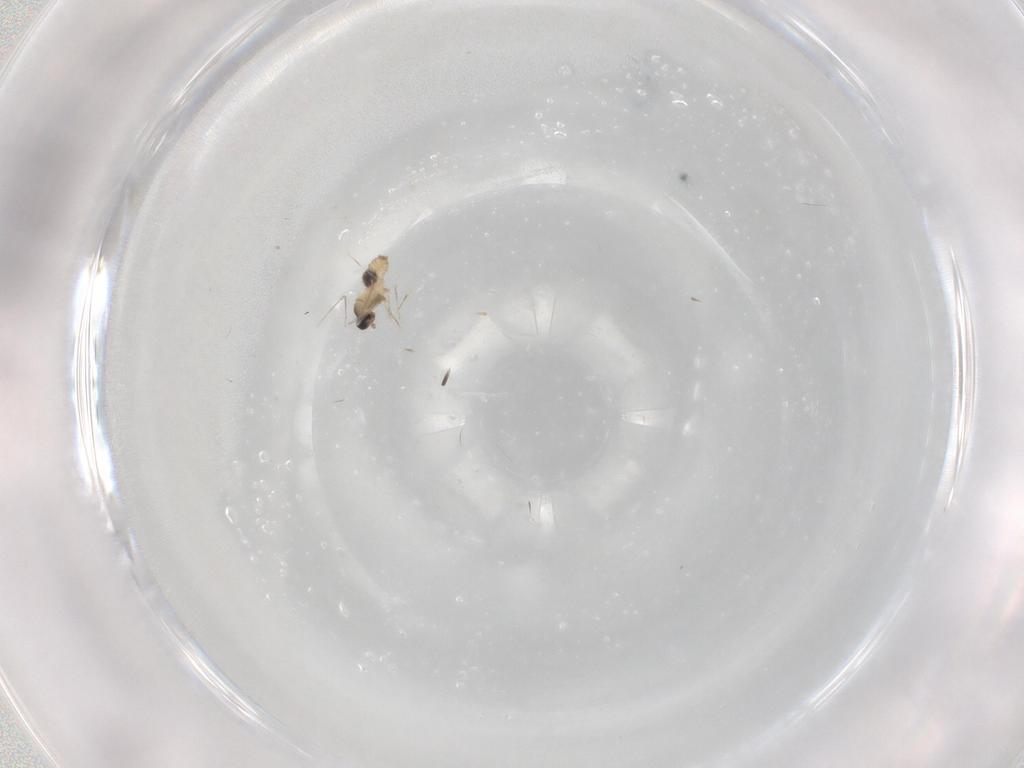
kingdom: Animalia
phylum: Arthropoda
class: Insecta
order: Diptera
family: Cecidomyiidae
